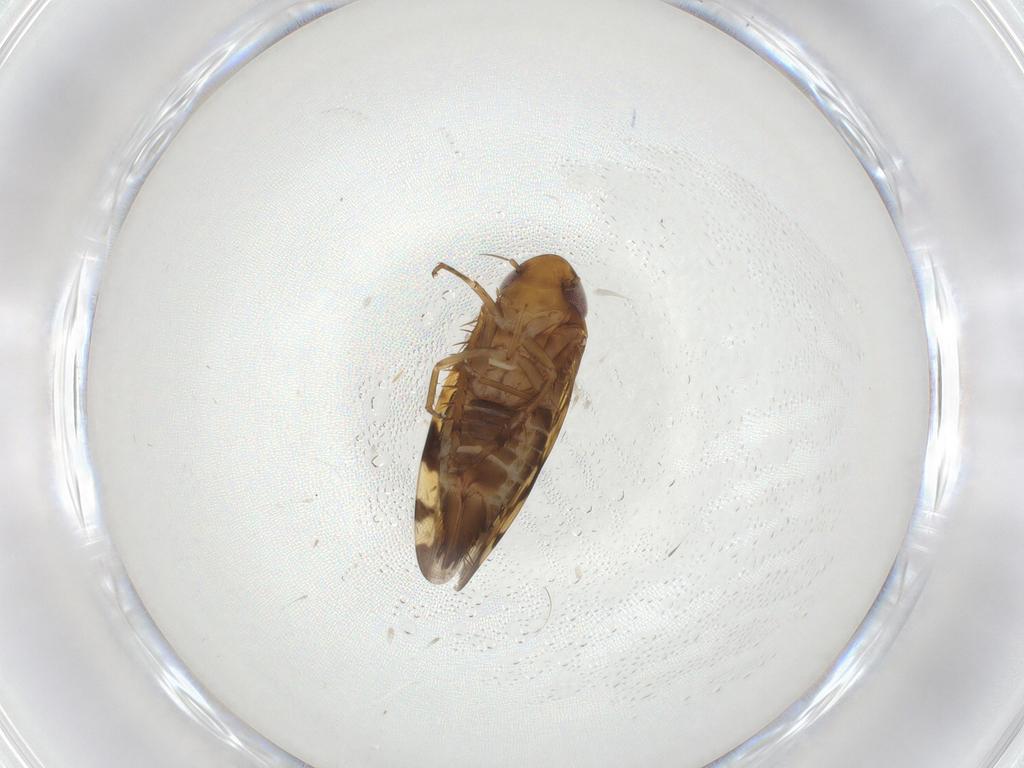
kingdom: Animalia
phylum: Arthropoda
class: Insecta
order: Hemiptera
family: Cicadellidae
